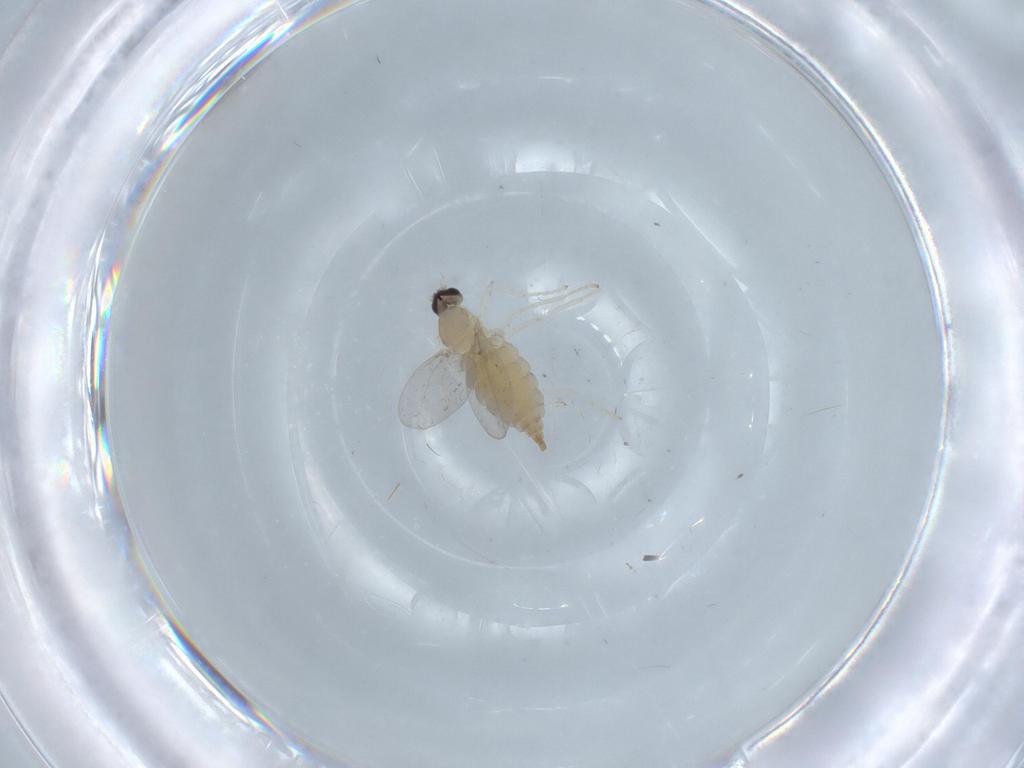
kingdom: Animalia
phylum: Arthropoda
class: Insecta
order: Diptera
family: Cecidomyiidae
